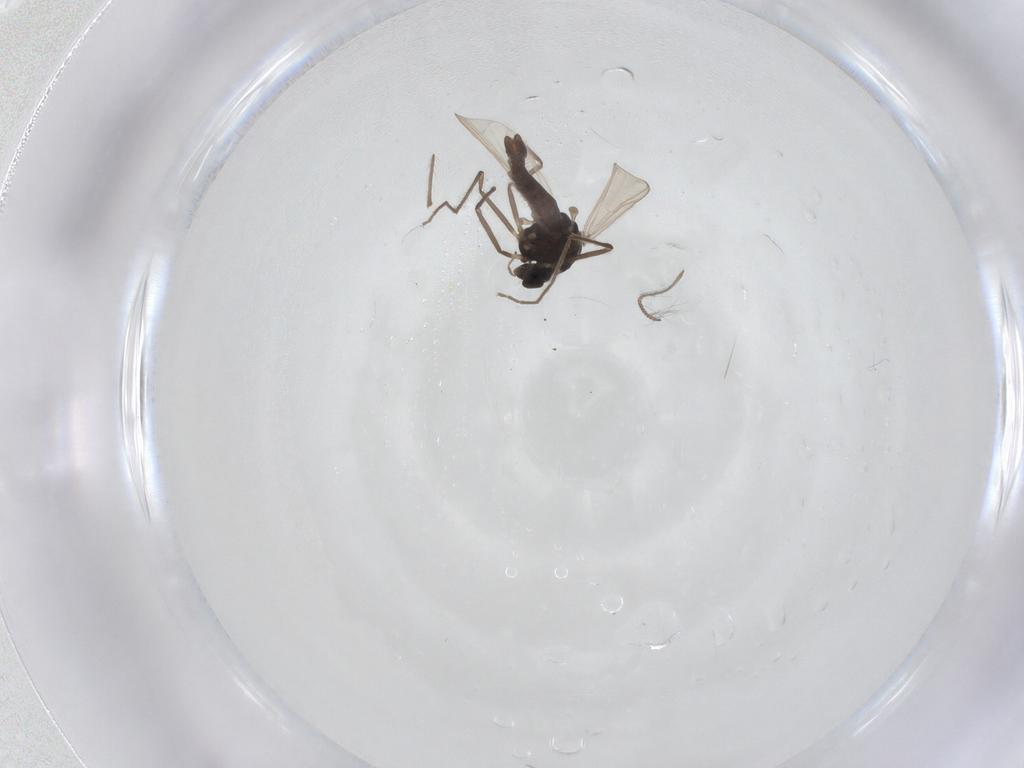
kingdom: Animalia
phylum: Arthropoda
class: Insecta
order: Diptera
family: Chironomidae
